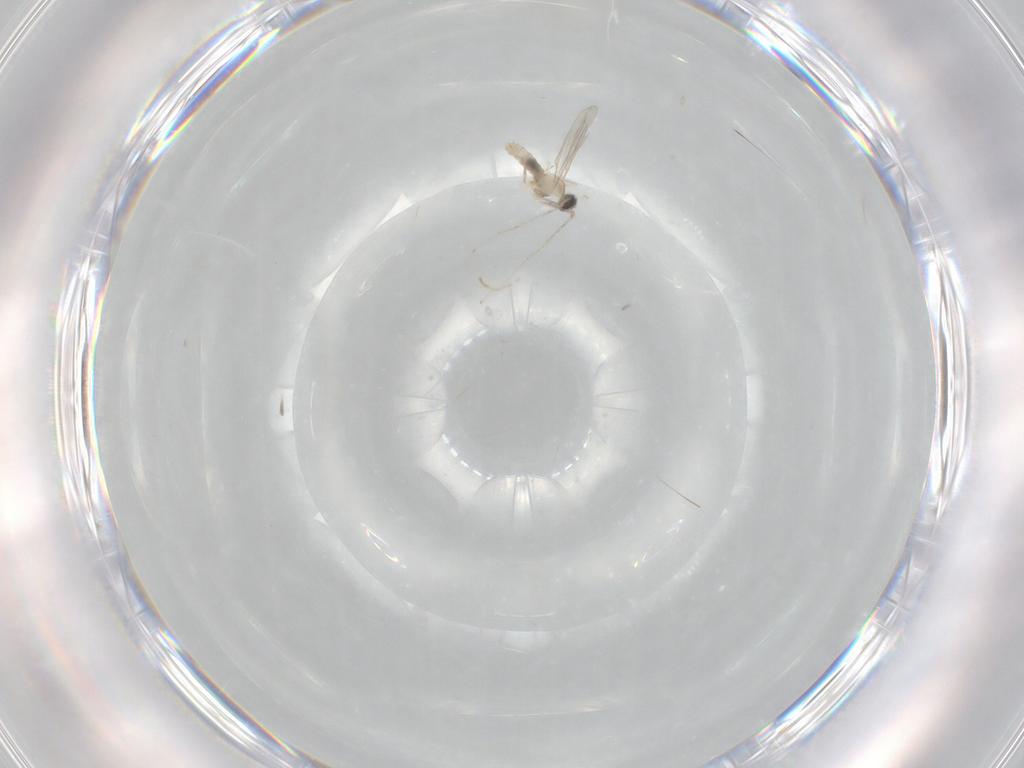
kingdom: Animalia
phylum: Arthropoda
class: Insecta
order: Diptera
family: Cecidomyiidae
